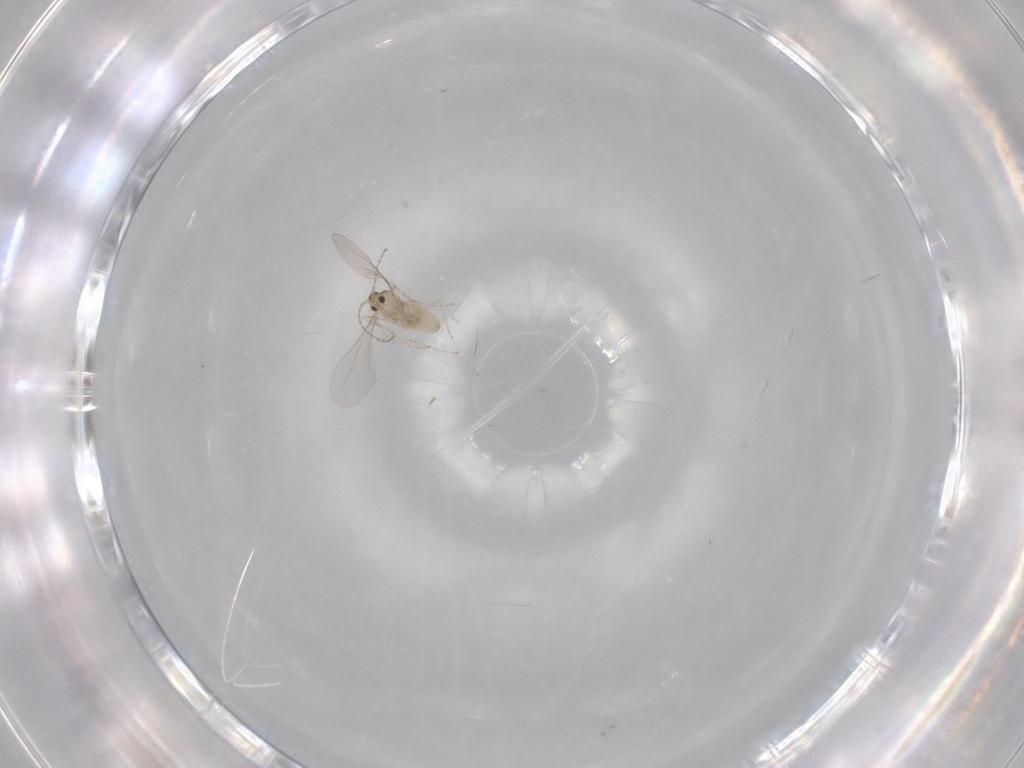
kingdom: Animalia
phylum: Arthropoda
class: Insecta
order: Diptera
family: Cecidomyiidae
